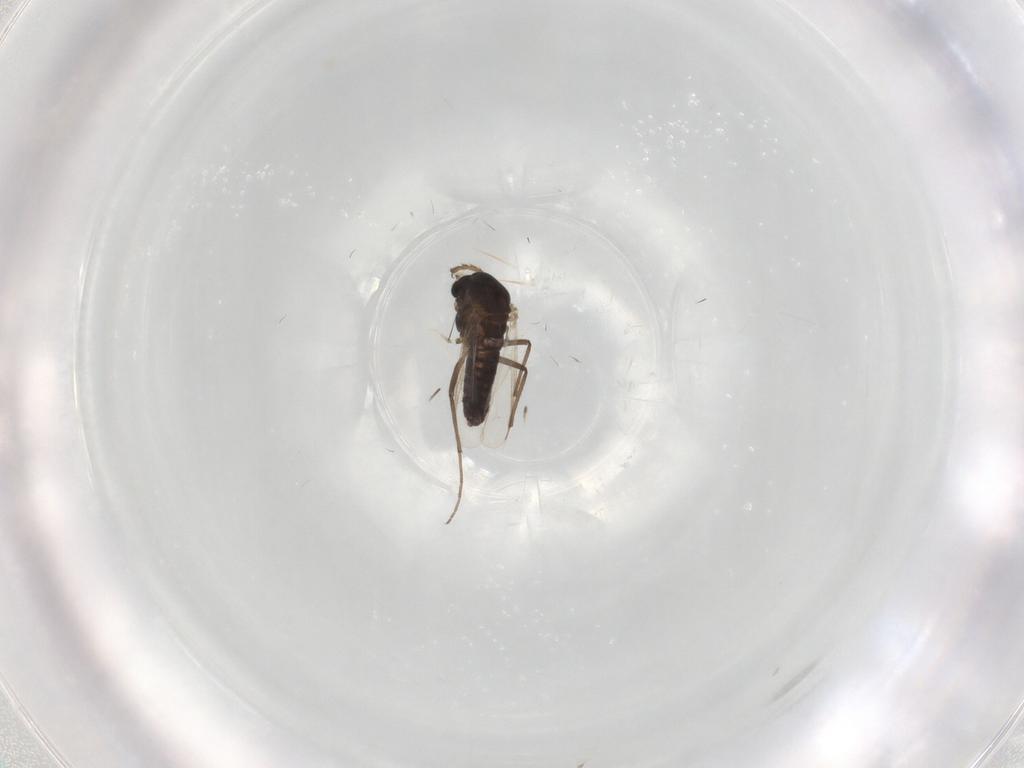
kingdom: Animalia
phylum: Arthropoda
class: Insecta
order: Diptera
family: Chironomidae
